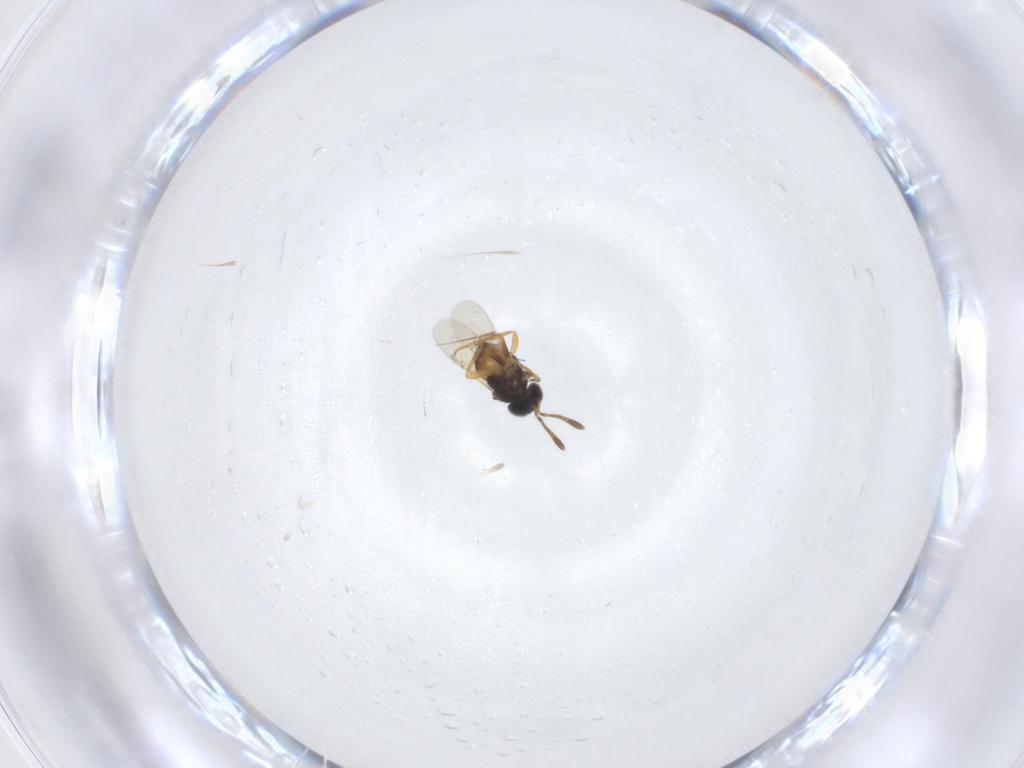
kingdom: Animalia
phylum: Arthropoda
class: Insecta
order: Hymenoptera
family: Pteromalidae
